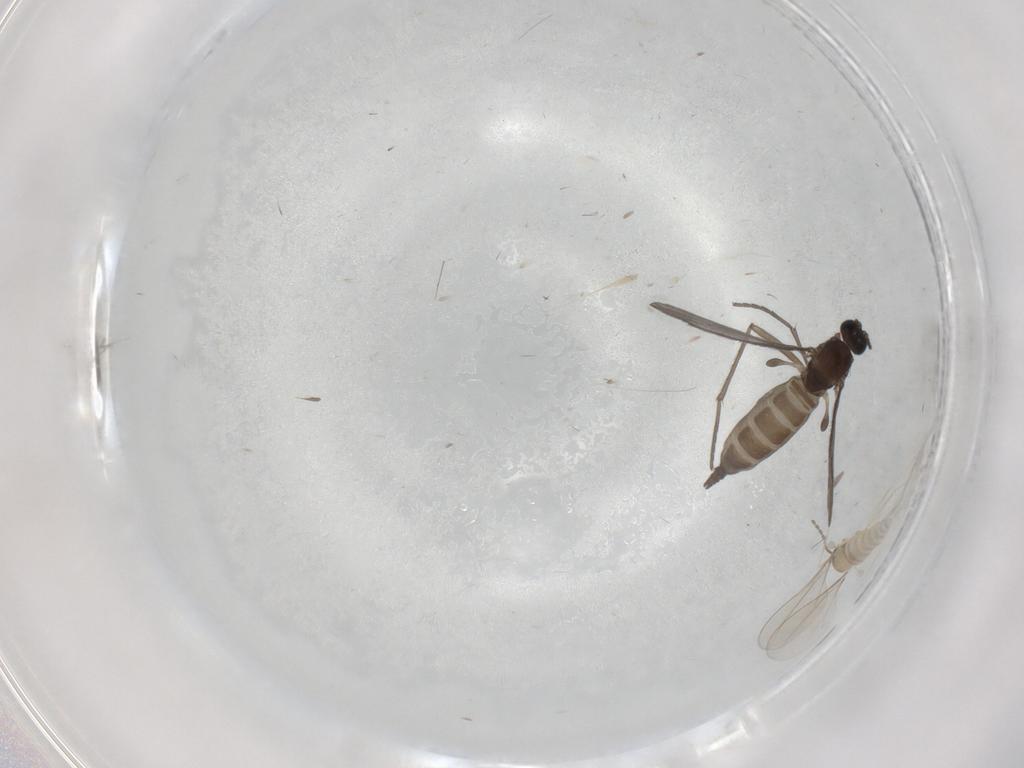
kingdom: Animalia
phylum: Arthropoda
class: Insecta
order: Diptera
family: Sciaridae
